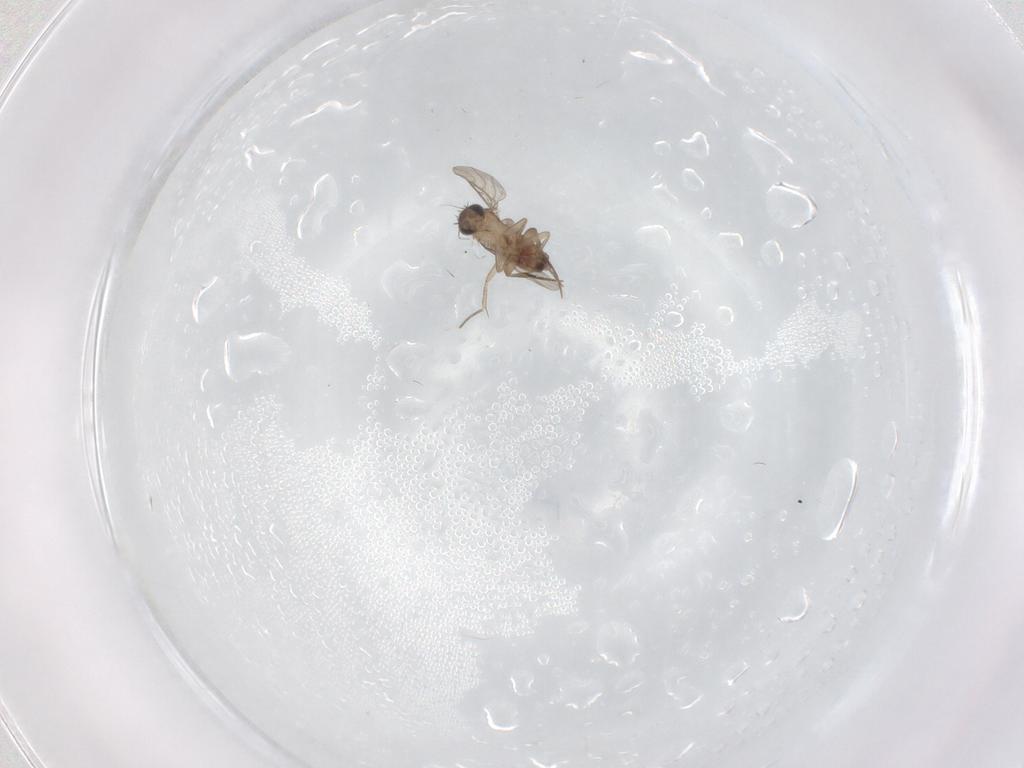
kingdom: Animalia
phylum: Arthropoda
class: Insecta
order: Diptera
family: Phoridae
